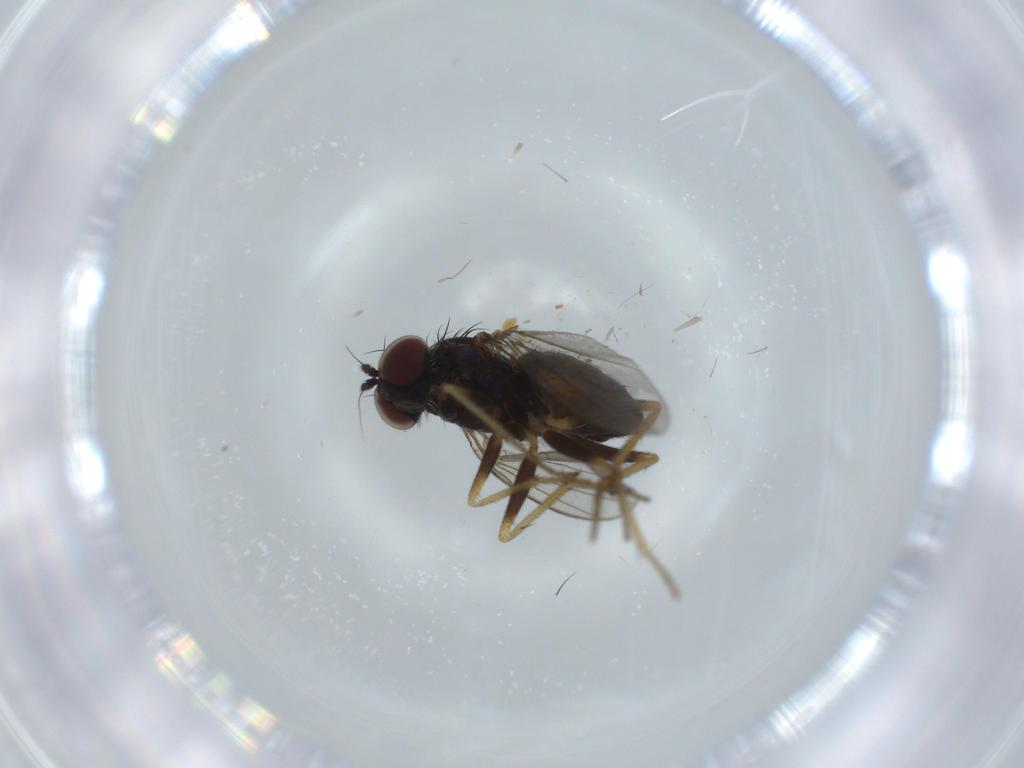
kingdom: Animalia
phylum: Arthropoda
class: Insecta
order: Diptera
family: Dolichopodidae
